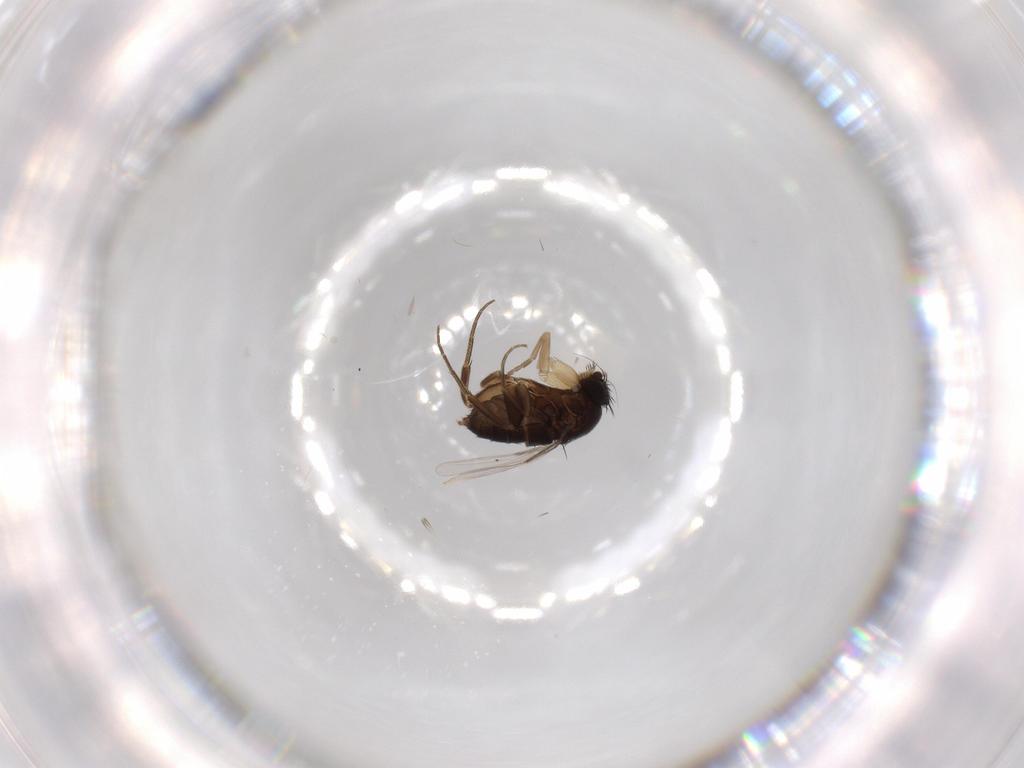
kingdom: Animalia
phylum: Arthropoda
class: Insecta
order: Diptera
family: Phoridae
